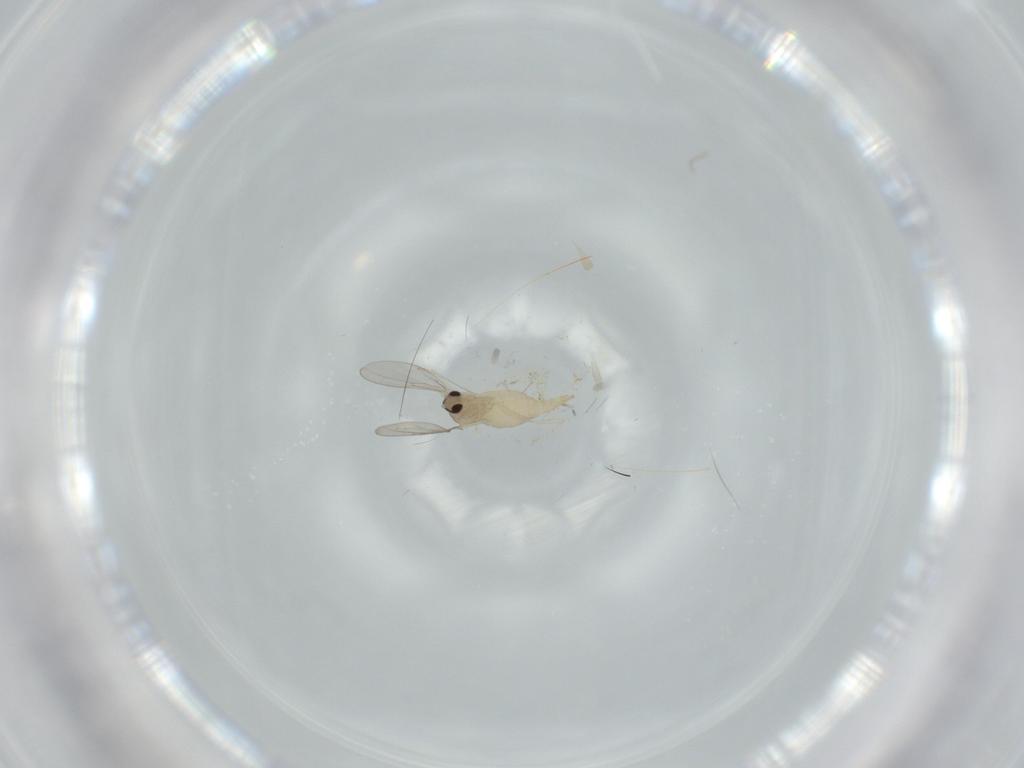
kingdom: Animalia
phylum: Arthropoda
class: Insecta
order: Diptera
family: Cecidomyiidae
